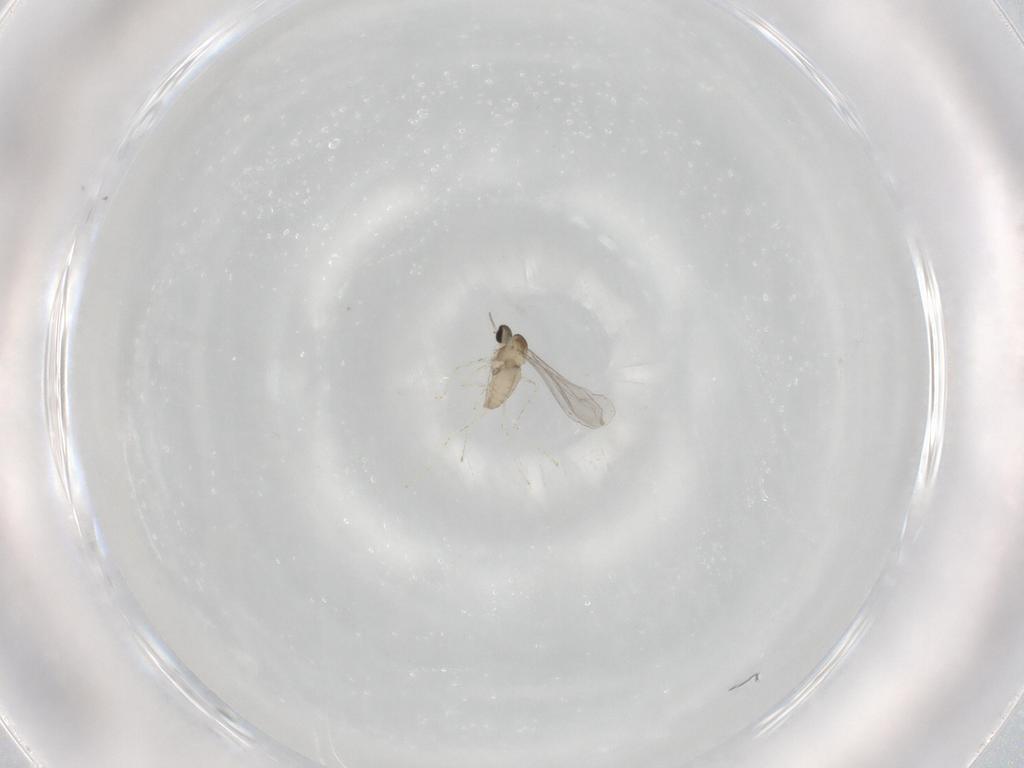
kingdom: Animalia
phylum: Arthropoda
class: Insecta
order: Diptera
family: Cecidomyiidae
